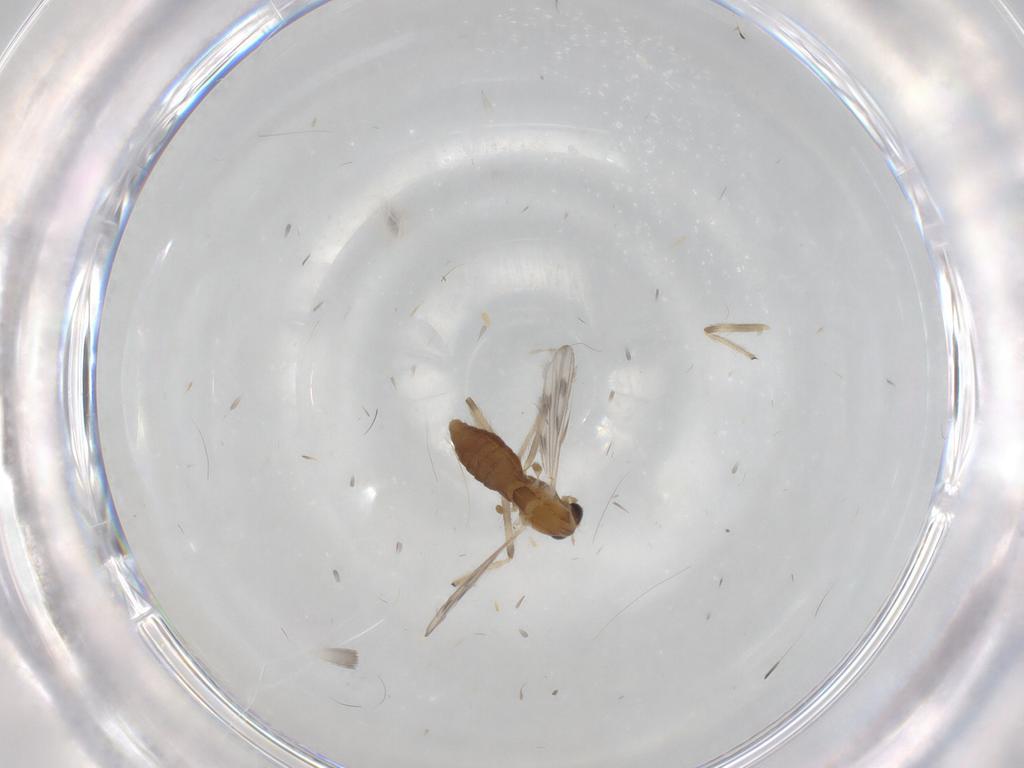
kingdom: Animalia
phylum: Arthropoda
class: Insecta
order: Diptera
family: Chironomidae
